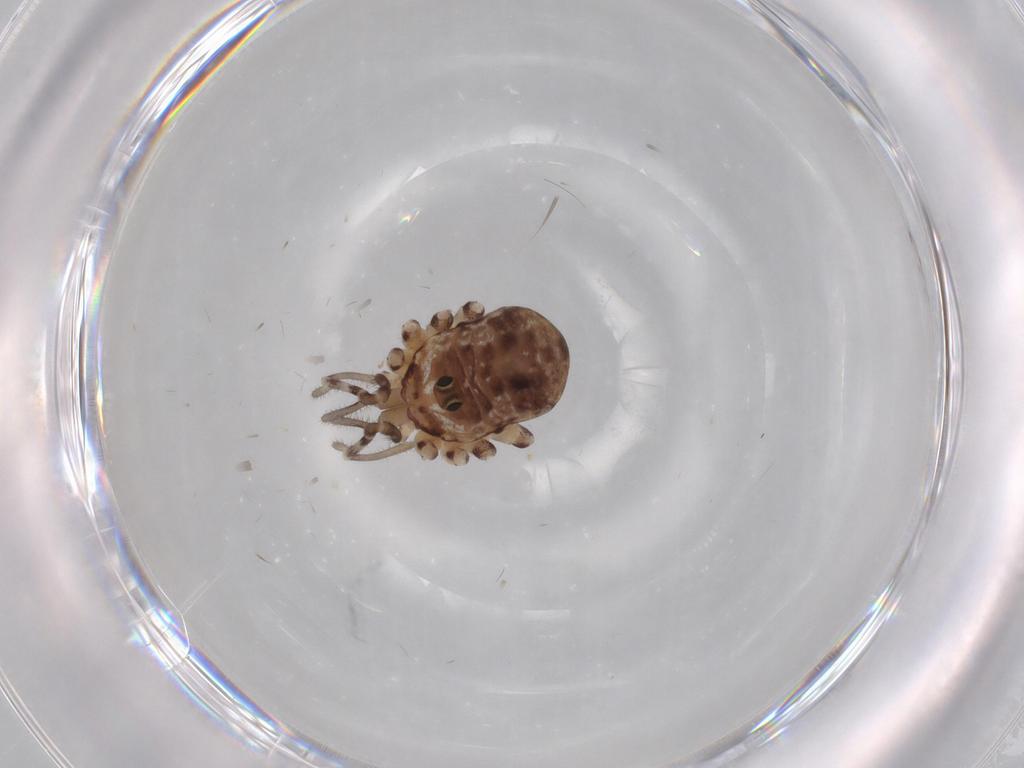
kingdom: Animalia
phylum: Arthropoda
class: Arachnida
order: Opiliones
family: Sclerosomatidae
